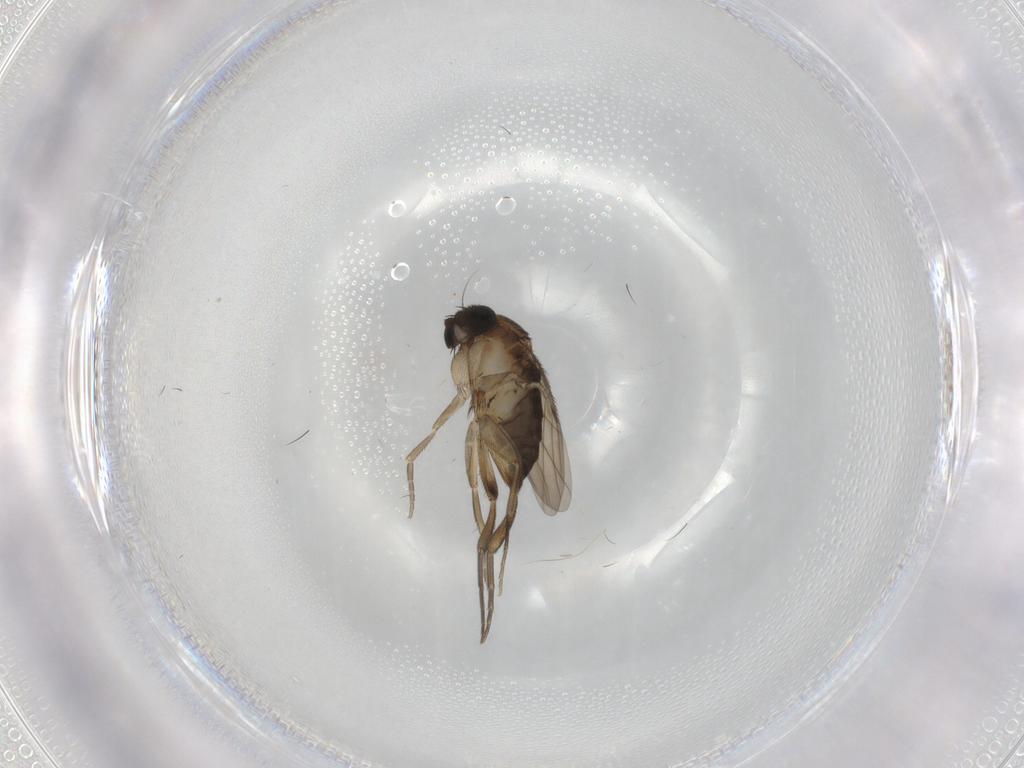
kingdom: Animalia
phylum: Arthropoda
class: Insecta
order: Diptera
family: Phoridae
